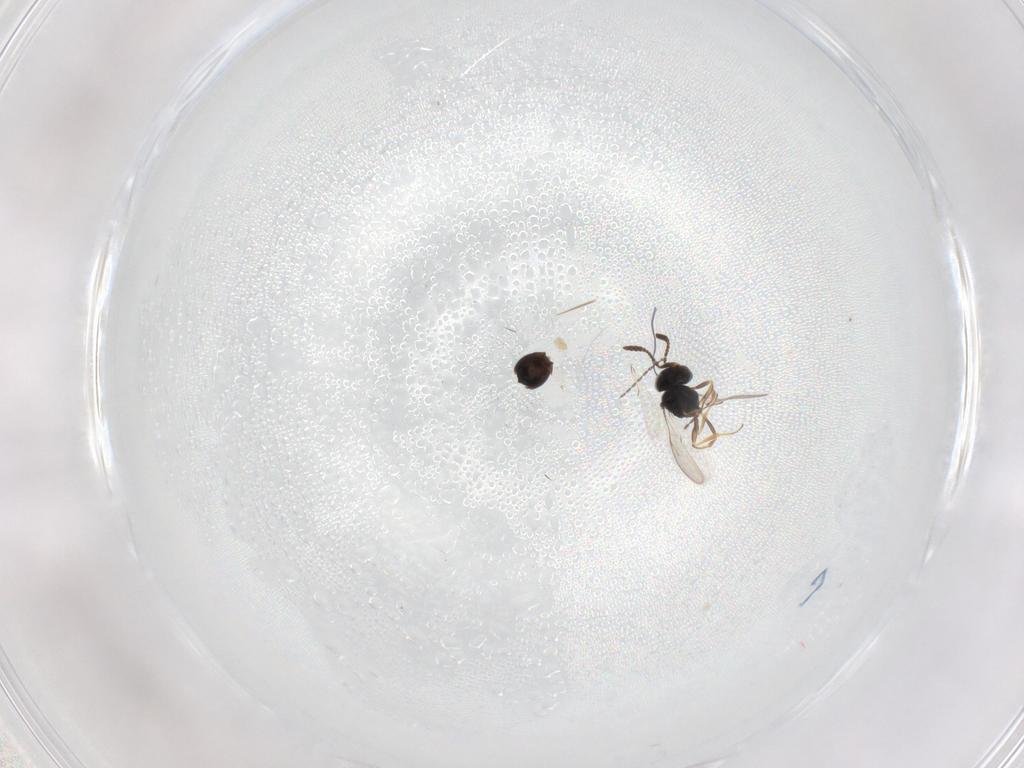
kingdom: Animalia
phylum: Arthropoda
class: Insecta
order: Hymenoptera
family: Scelionidae
